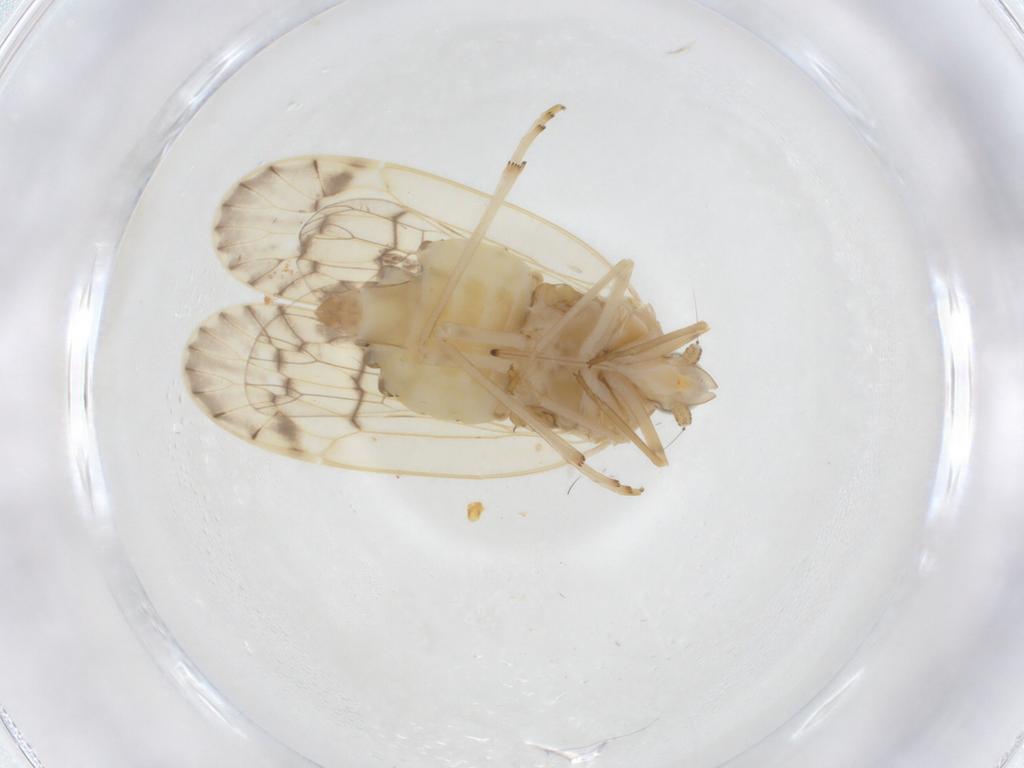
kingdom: Animalia
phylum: Arthropoda
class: Insecta
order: Hemiptera
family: Kinnaridae
